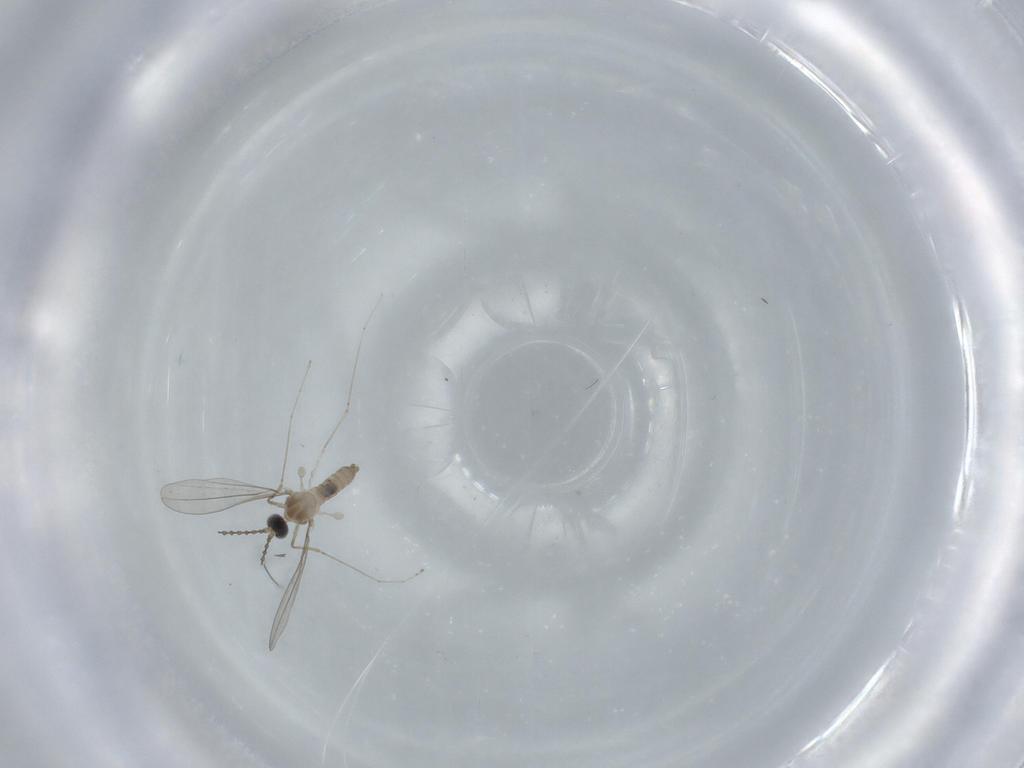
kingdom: Animalia
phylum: Arthropoda
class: Insecta
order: Diptera
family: Cecidomyiidae
